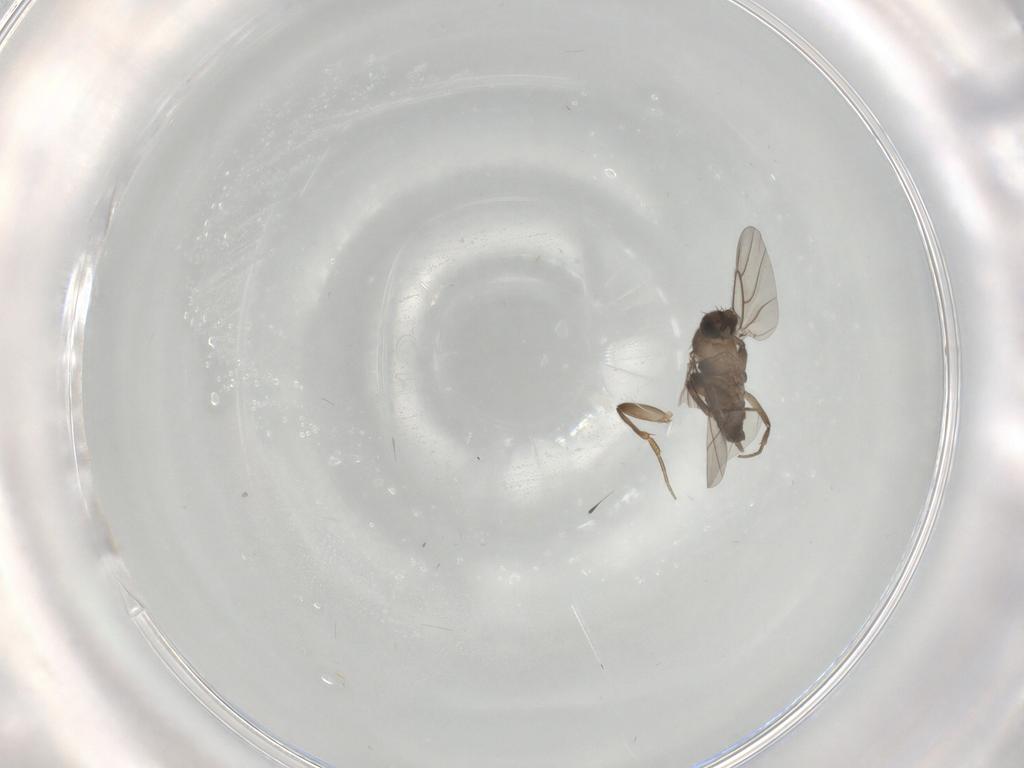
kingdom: Animalia
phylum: Arthropoda
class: Insecta
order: Diptera
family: Phoridae
